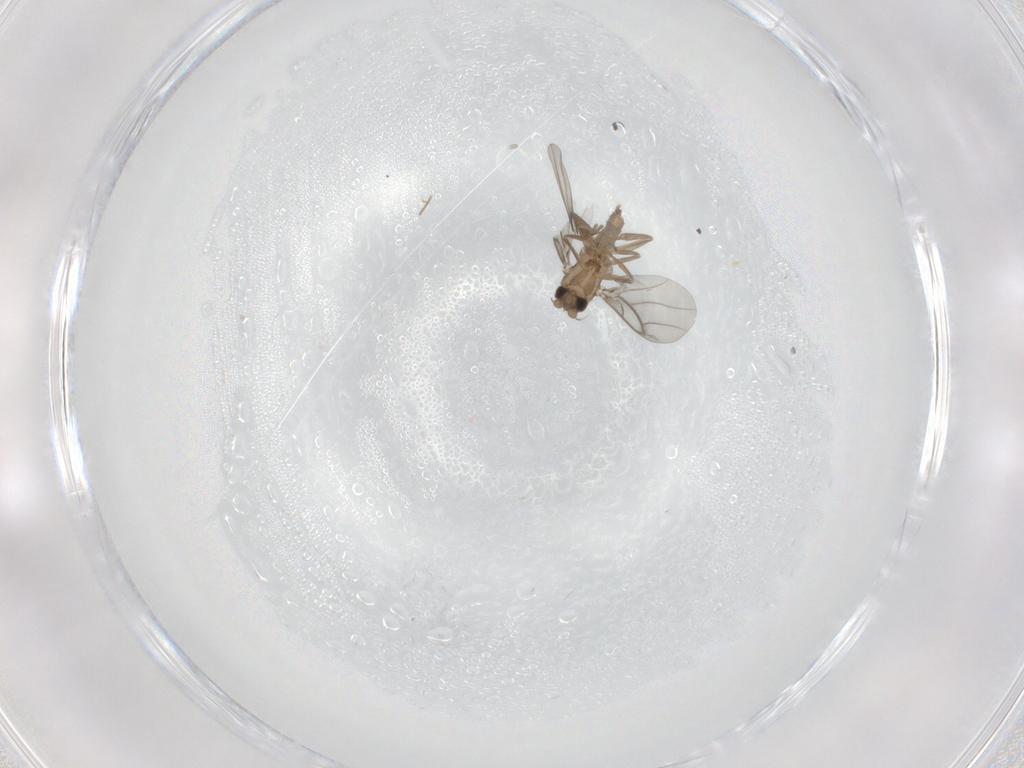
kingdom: Animalia
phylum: Arthropoda
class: Insecta
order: Diptera
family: Cecidomyiidae
